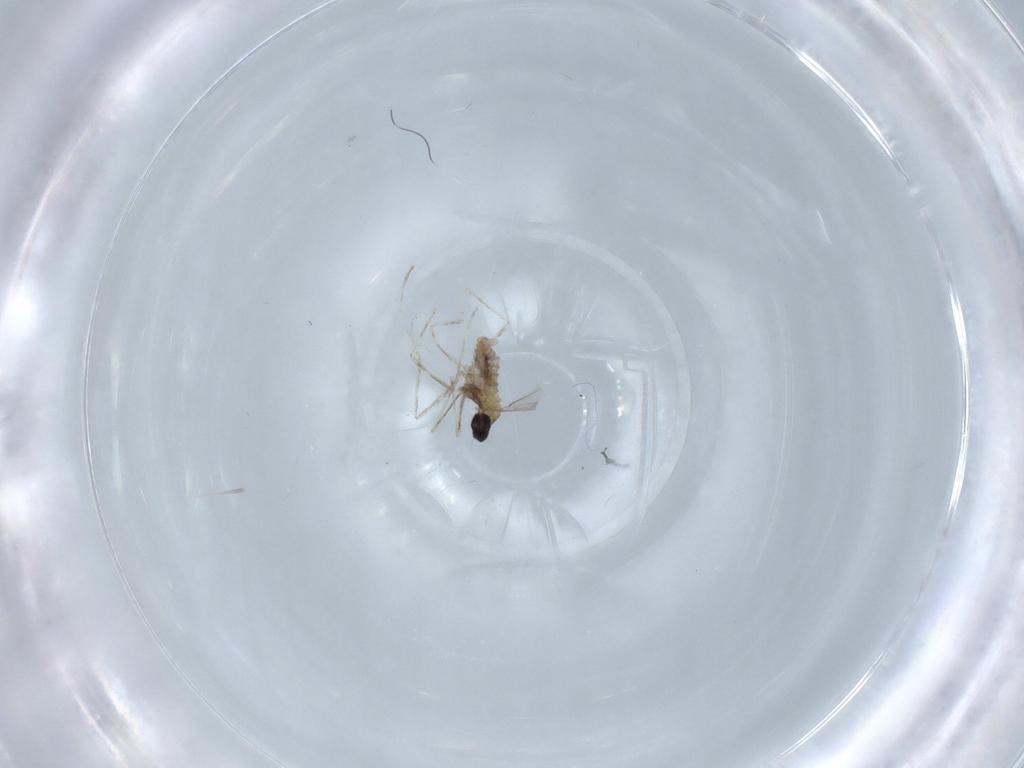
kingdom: Animalia
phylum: Arthropoda
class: Insecta
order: Diptera
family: Cecidomyiidae
